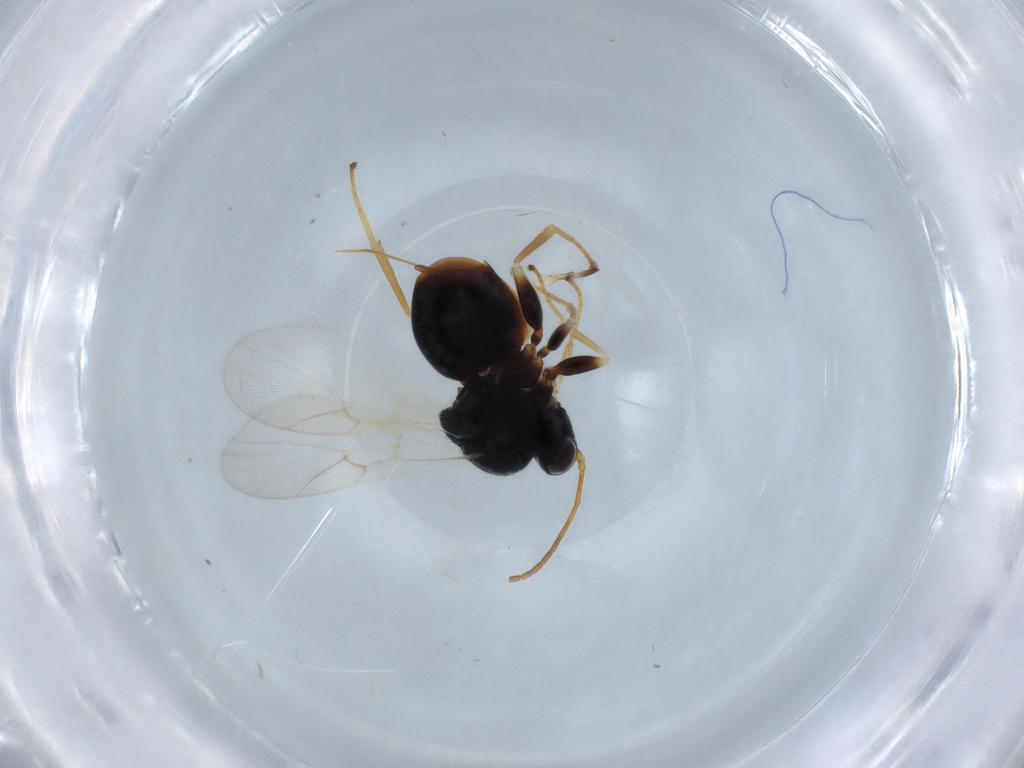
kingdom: Animalia
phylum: Arthropoda
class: Insecta
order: Hymenoptera
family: Cynipidae
